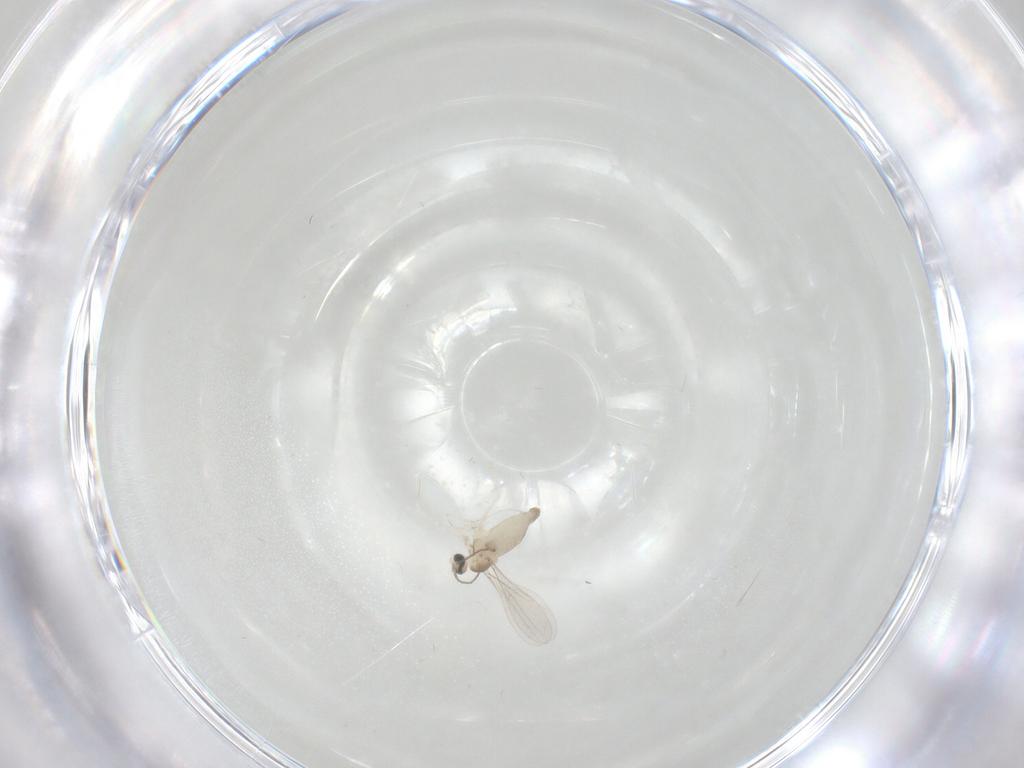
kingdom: Animalia
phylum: Arthropoda
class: Insecta
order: Diptera
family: Cecidomyiidae
